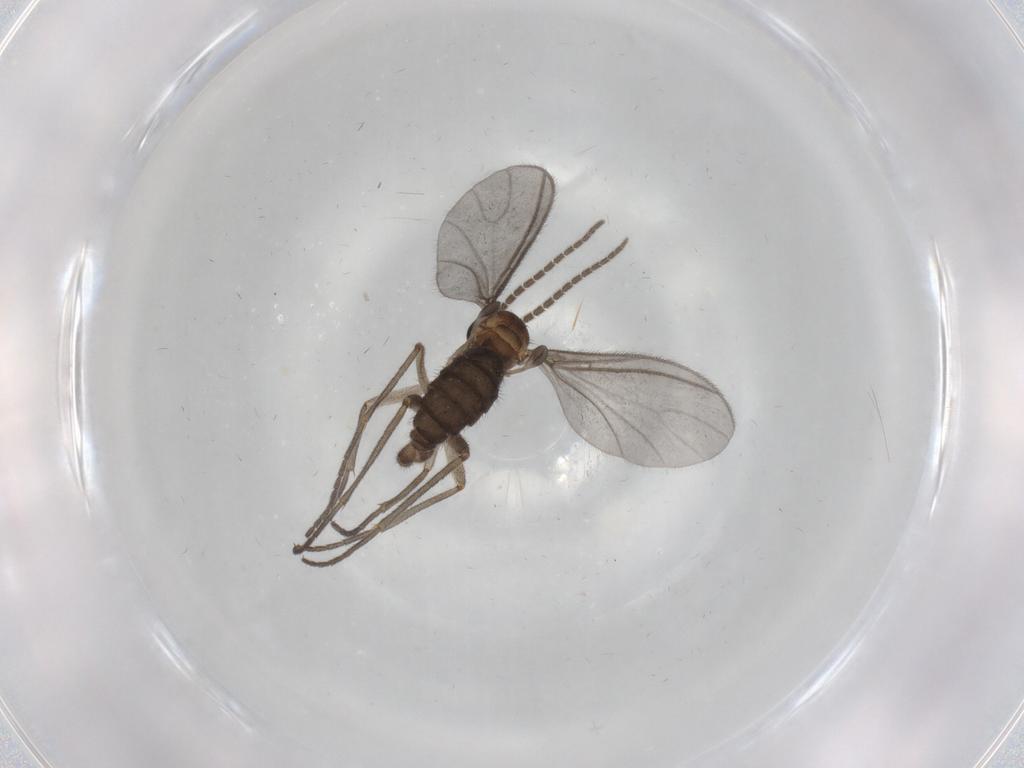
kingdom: Animalia
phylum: Arthropoda
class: Insecta
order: Diptera
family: Sciaridae
